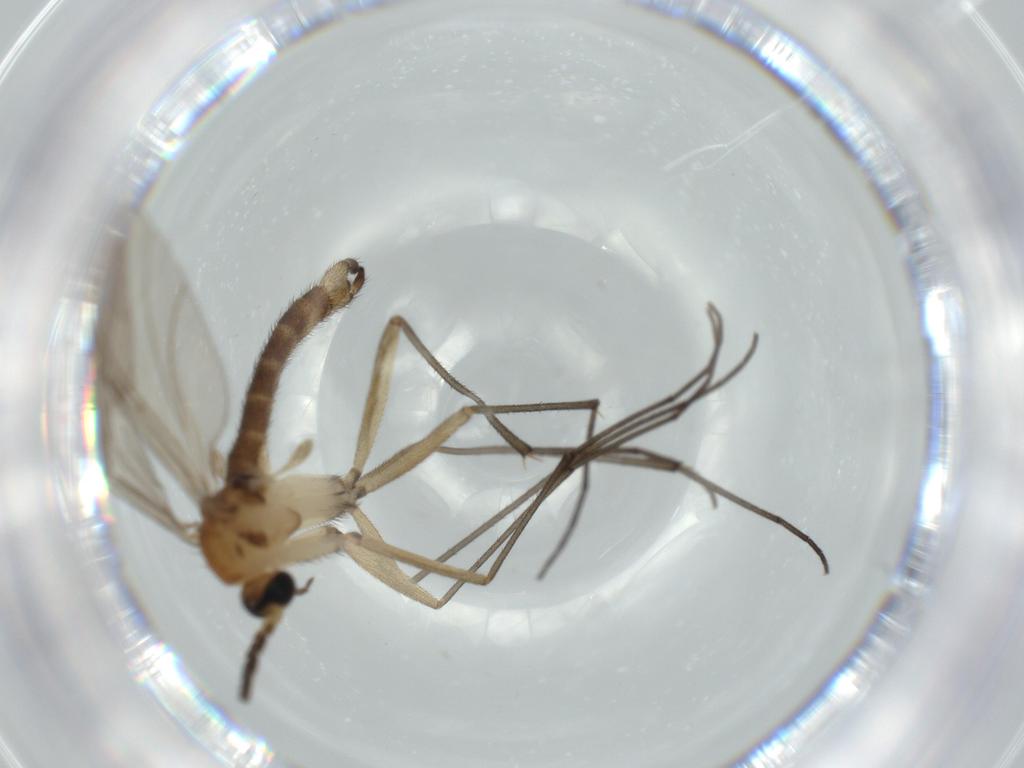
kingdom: Animalia
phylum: Arthropoda
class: Insecta
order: Diptera
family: Sciaridae
